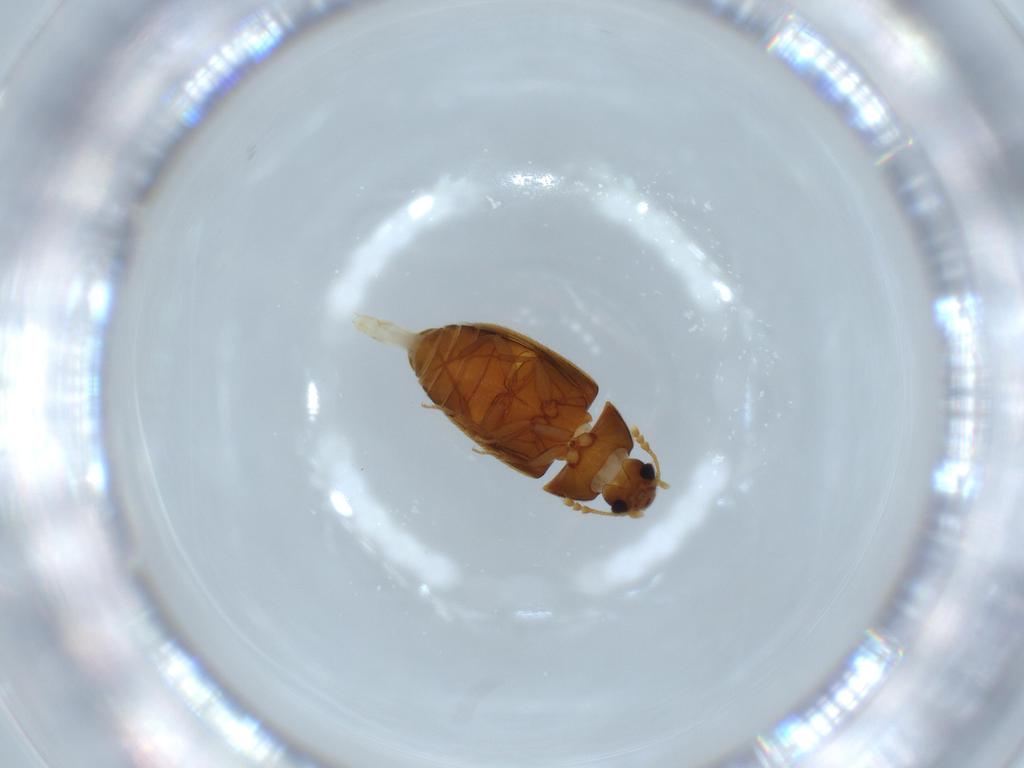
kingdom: Animalia
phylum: Arthropoda
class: Insecta
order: Coleoptera
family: Mycetophagidae
